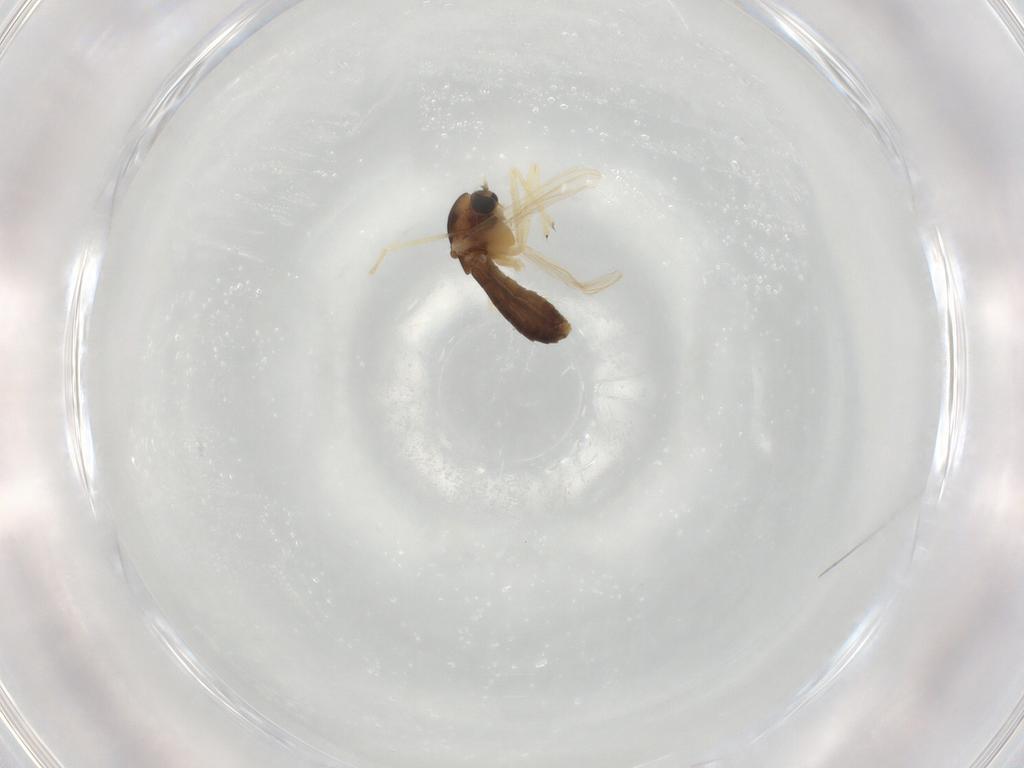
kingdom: Animalia
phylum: Arthropoda
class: Insecta
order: Diptera
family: Chironomidae
